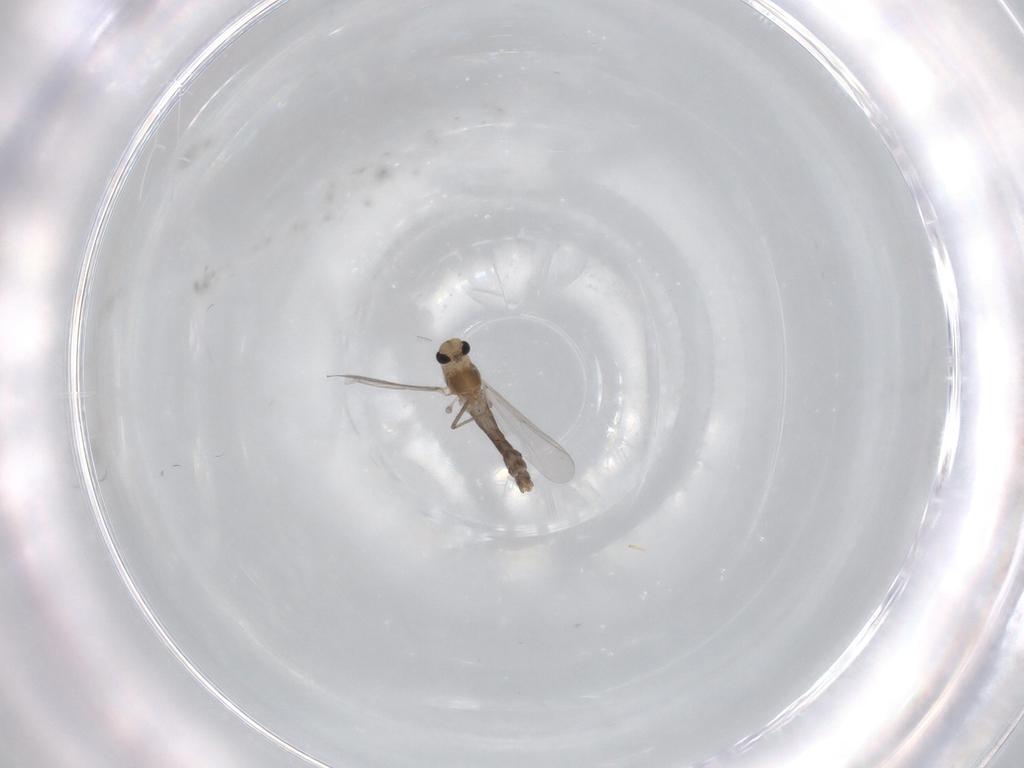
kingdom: Animalia
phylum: Arthropoda
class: Insecta
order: Diptera
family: Chironomidae
